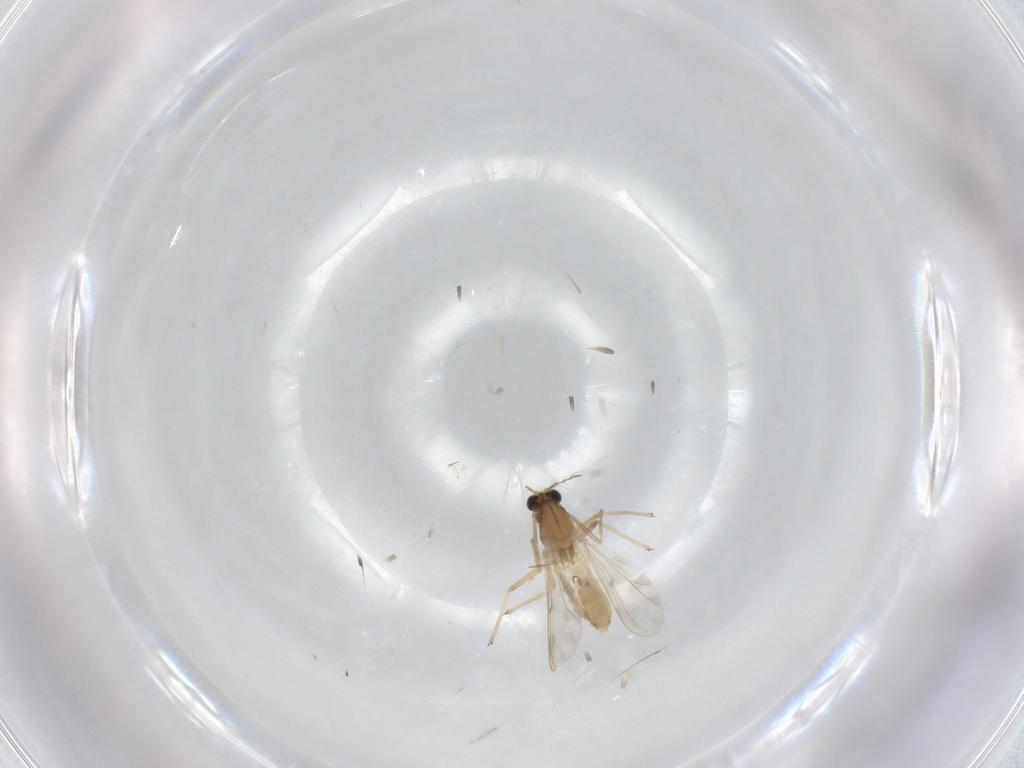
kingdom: Animalia
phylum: Arthropoda
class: Insecta
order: Diptera
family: Chironomidae
